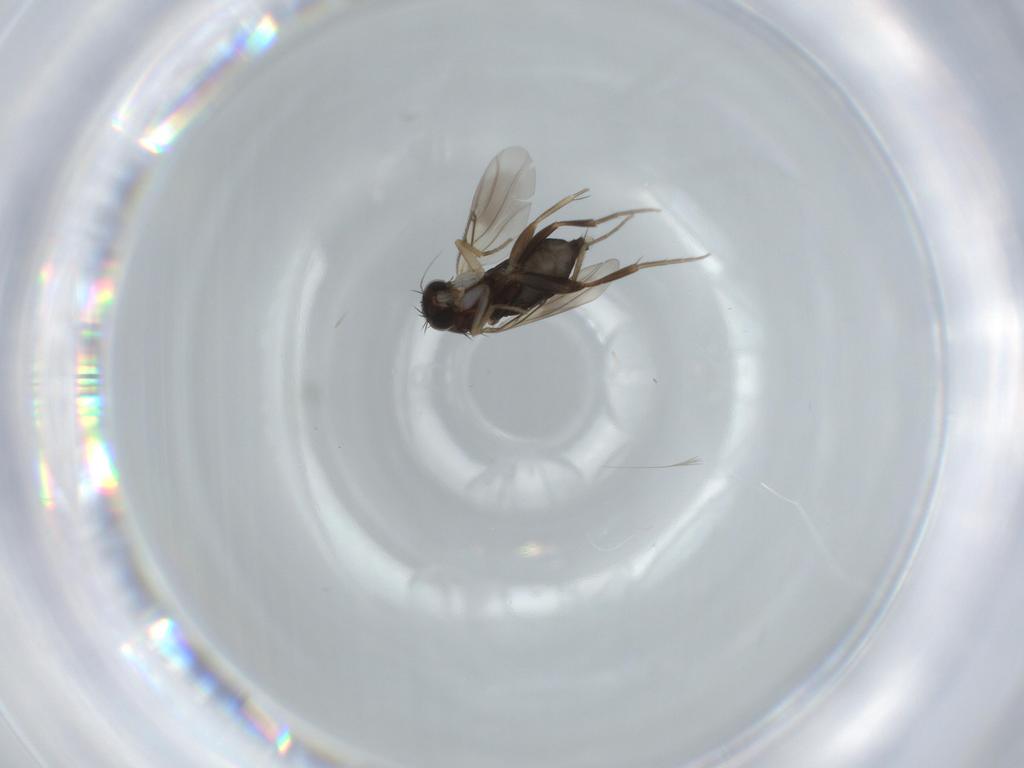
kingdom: Animalia
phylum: Arthropoda
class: Insecta
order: Diptera
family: Phoridae
